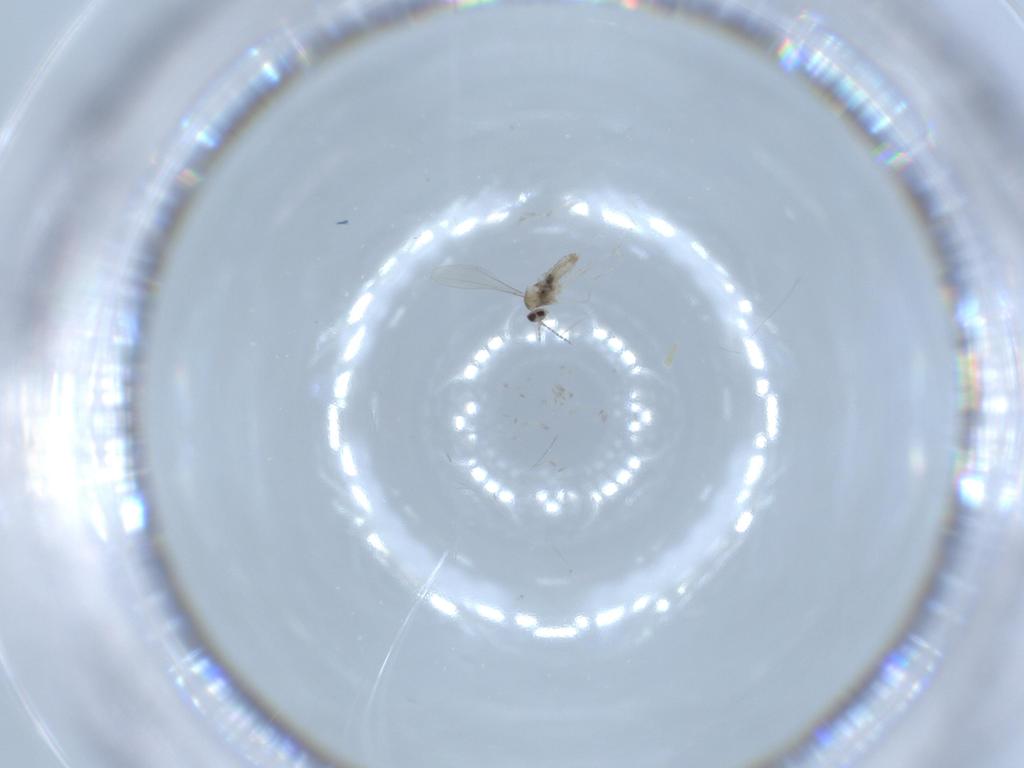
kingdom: Animalia
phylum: Arthropoda
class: Insecta
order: Diptera
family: Cecidomyiidae
